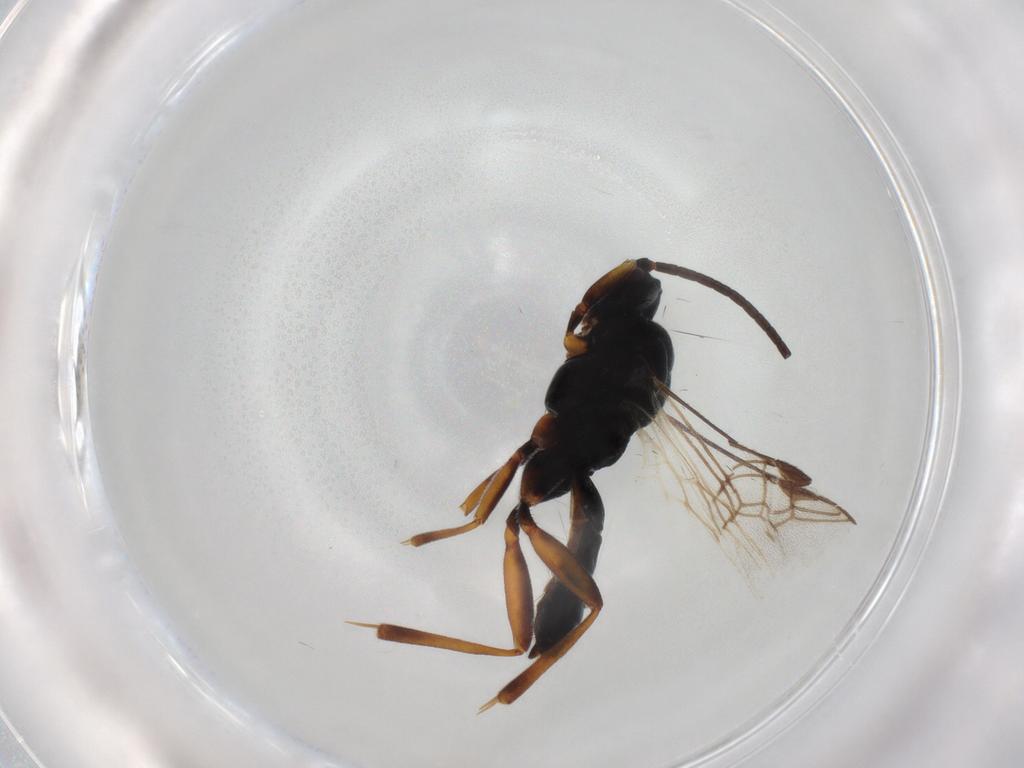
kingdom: Animalia
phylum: Arthropoda
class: Insecta
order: Hymenoptera
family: Braconidae
